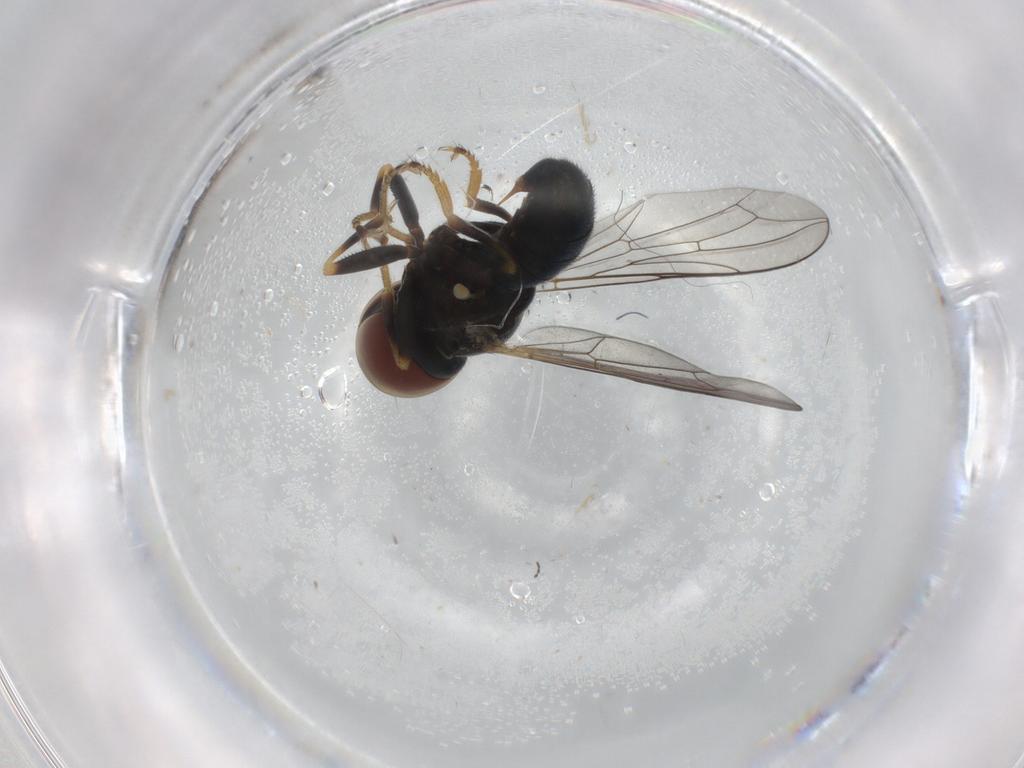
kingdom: Animalia
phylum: Arthropoda
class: Insecta
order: Diptera
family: Pipunculidae
